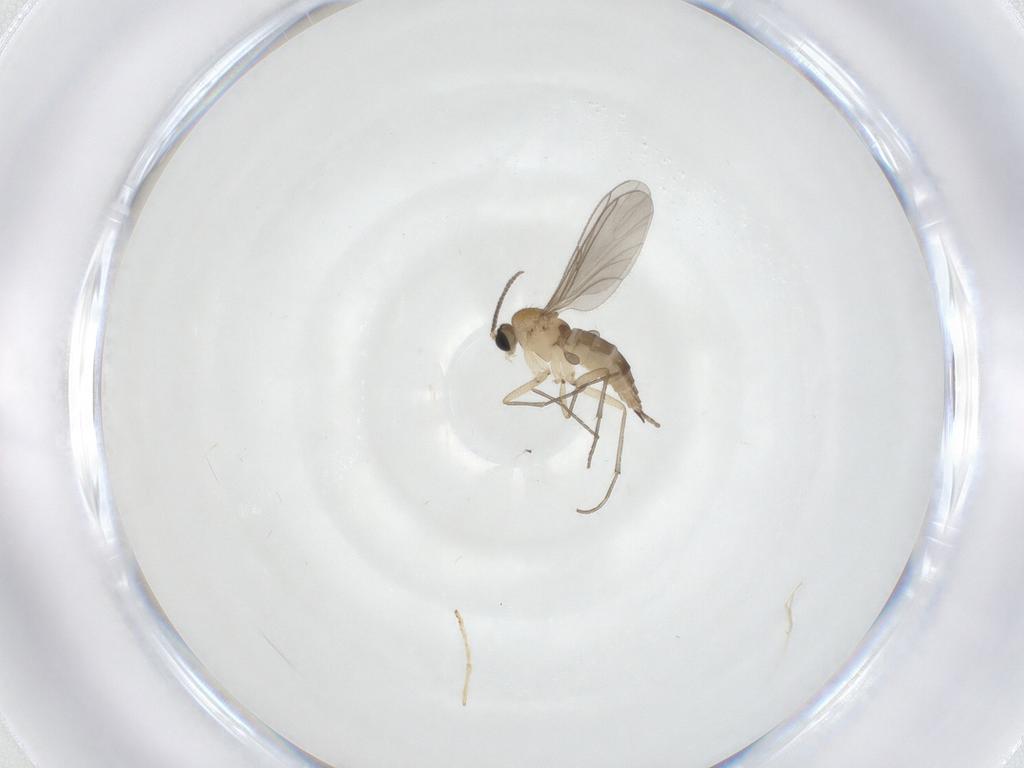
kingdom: Animalia
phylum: Arthropoda
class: Insecta
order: Diptera
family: Sciaridae
